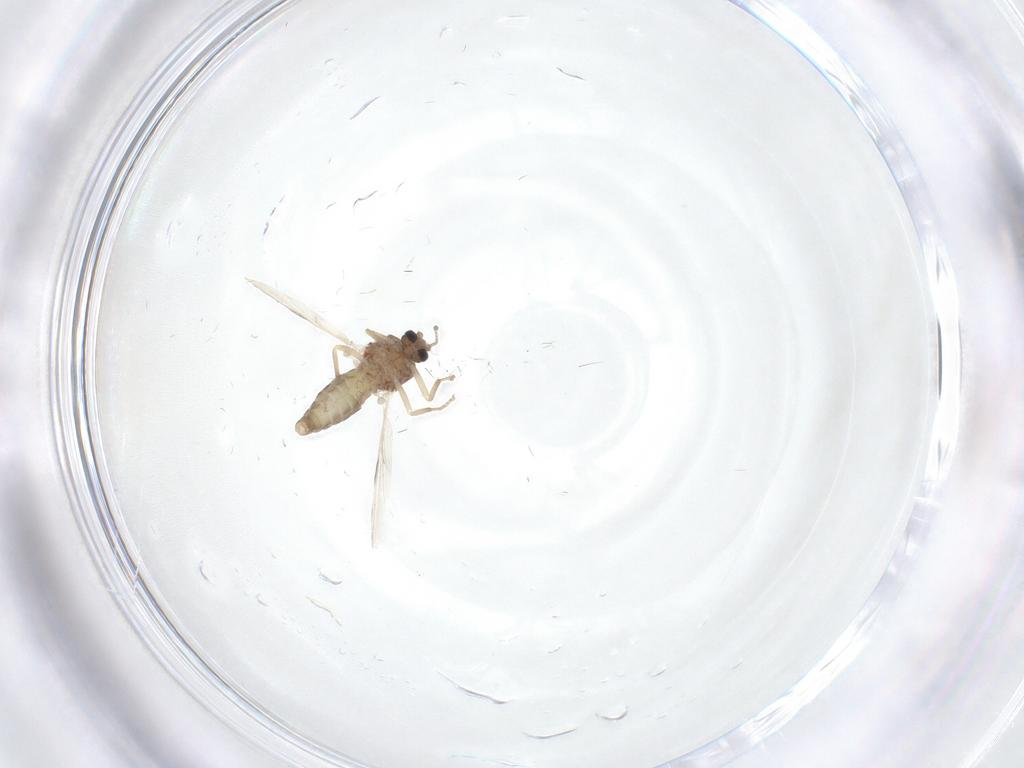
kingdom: Animalia
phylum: Arthropoda
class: Insecta
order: Diptera
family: Ceratopogonidae
